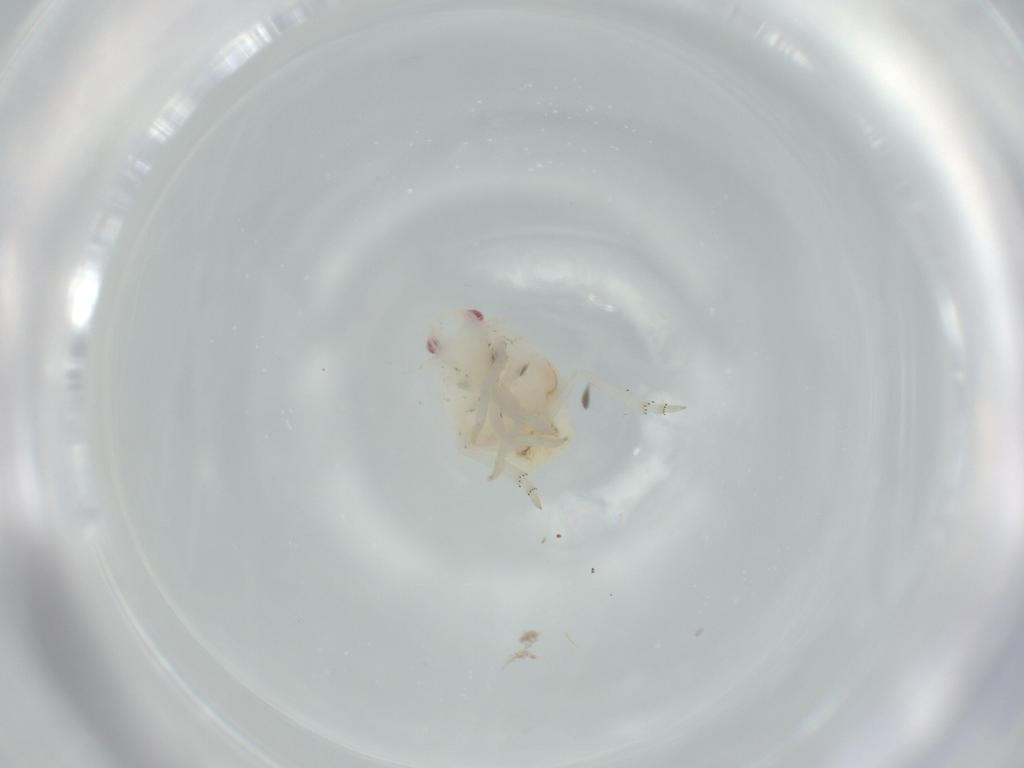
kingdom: Animalia
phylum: Arthropoda
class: Insecta
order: Hemiptera
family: Flatidae
